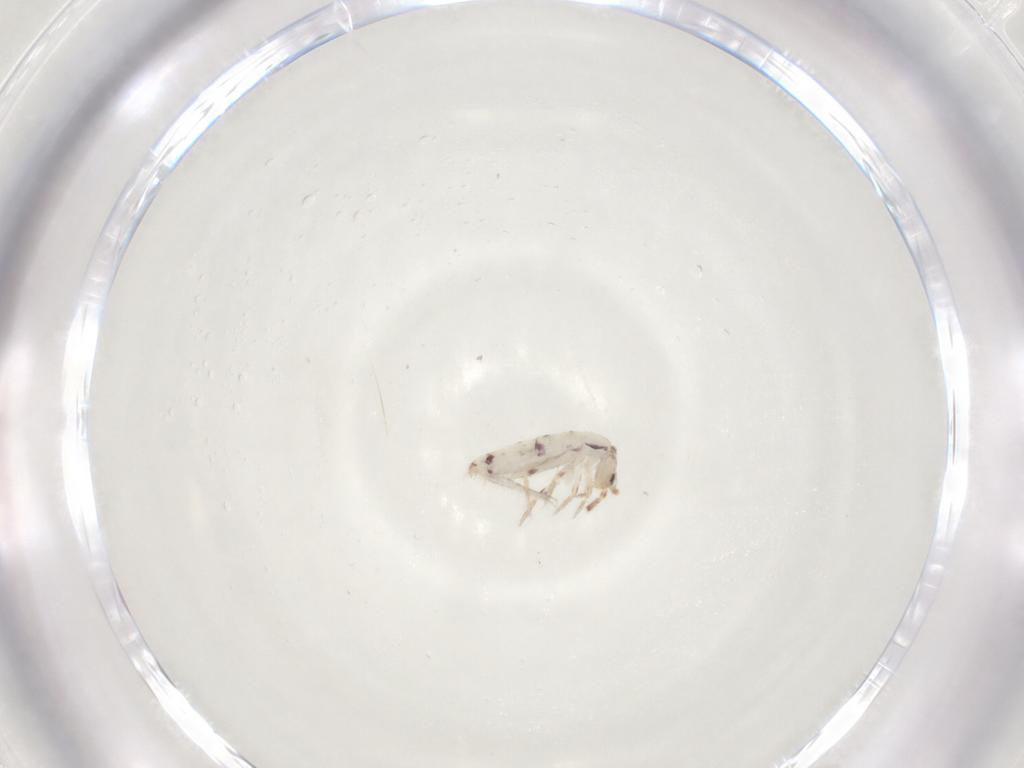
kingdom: Animalia
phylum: Arthropoda
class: Collembola
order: Entomobryomorpha
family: Entomobryidae
